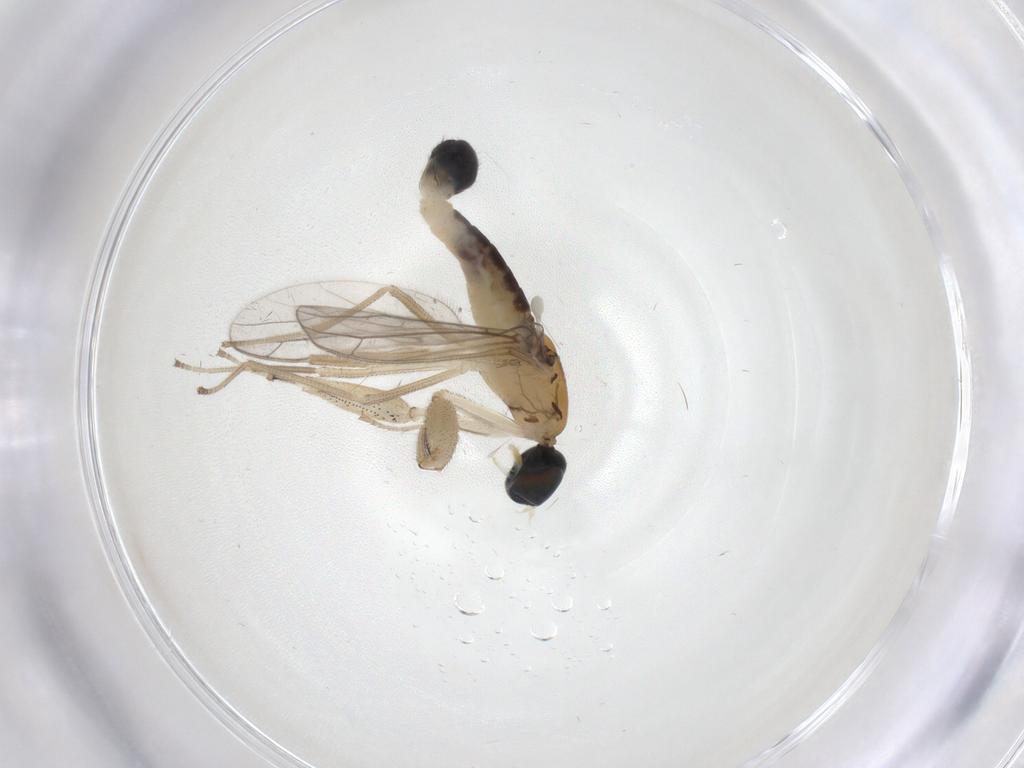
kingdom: Animalia
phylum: Arthropoda
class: Insecta
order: Diptera
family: Empididae
